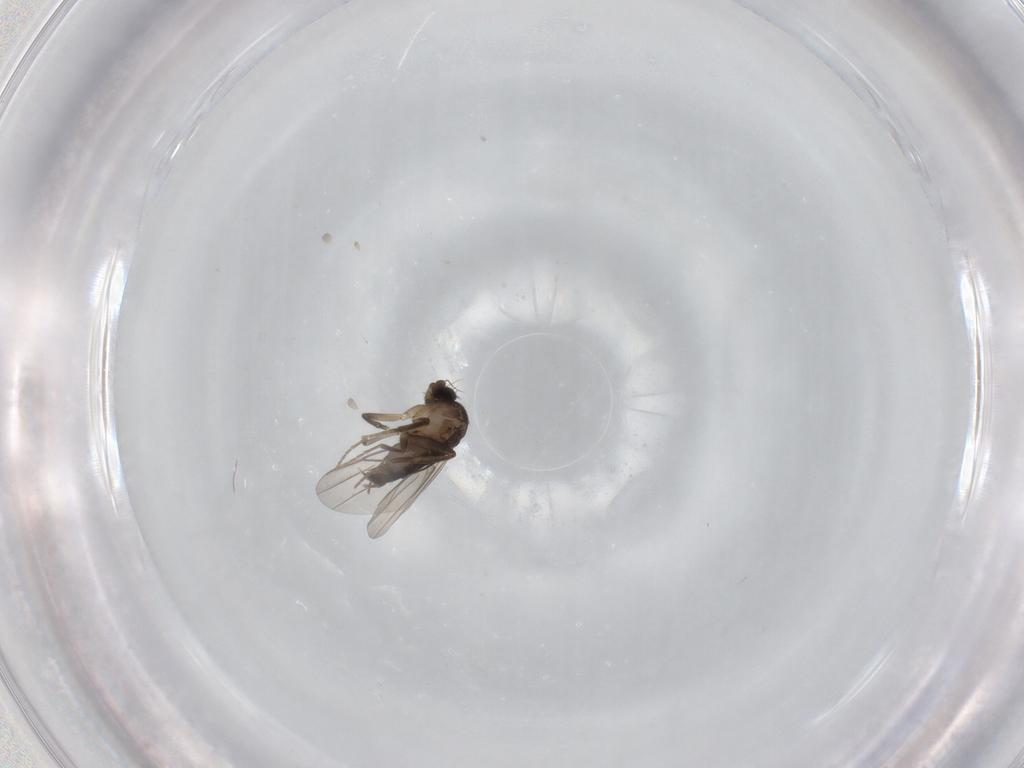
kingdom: Animalia
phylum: Arthropoda
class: Insecta
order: Diptera
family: Phoridae
